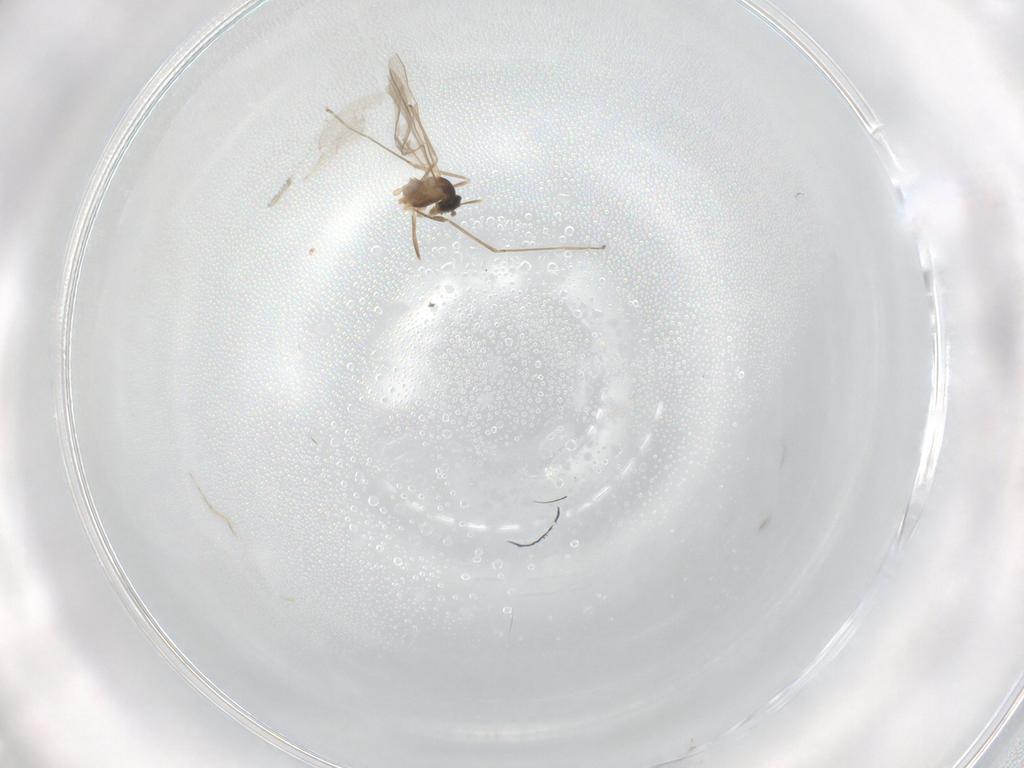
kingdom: Animalia
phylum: Arthropoda
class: Insecta
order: Diptera
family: Cecidomyiidae
